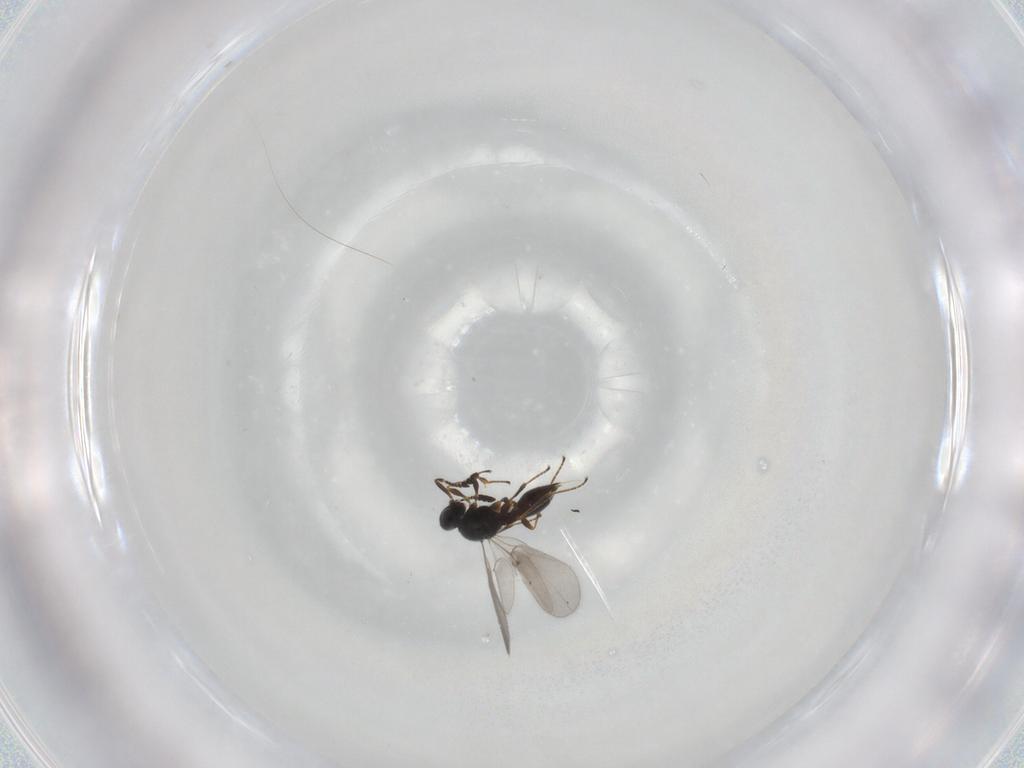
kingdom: Animalia
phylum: Arthropoda
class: Insecta
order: Hymenoptera
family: Platygastridae
